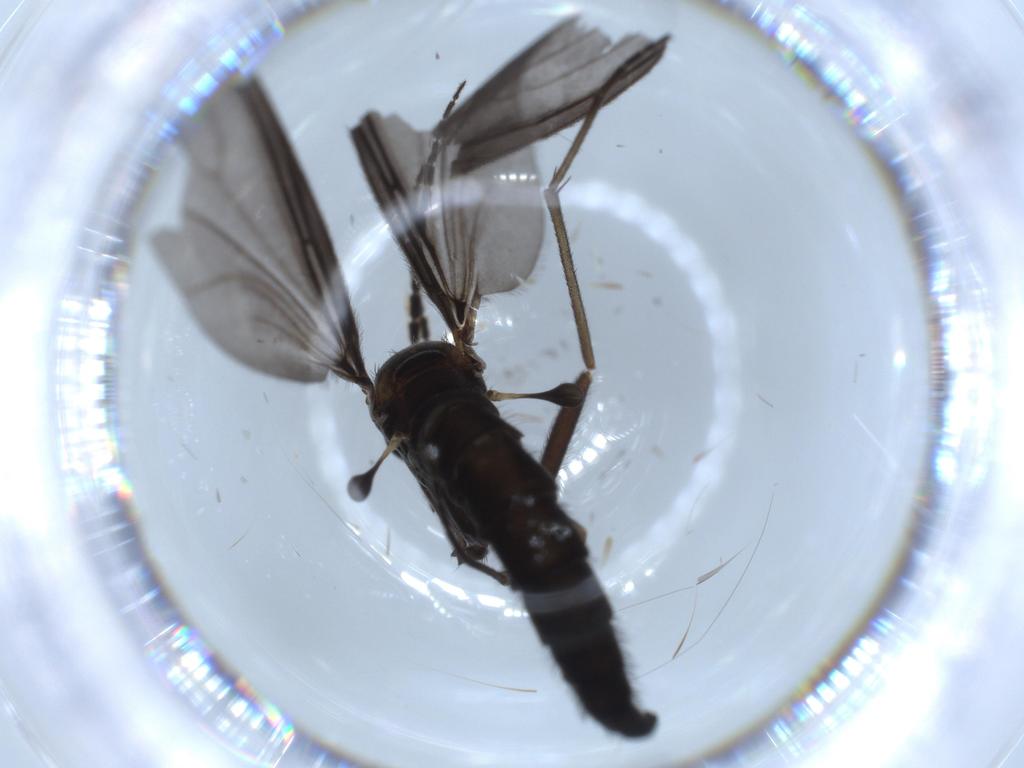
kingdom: Animalia
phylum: Arthropoda
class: Insecta
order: Diptera
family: Sciaridae
